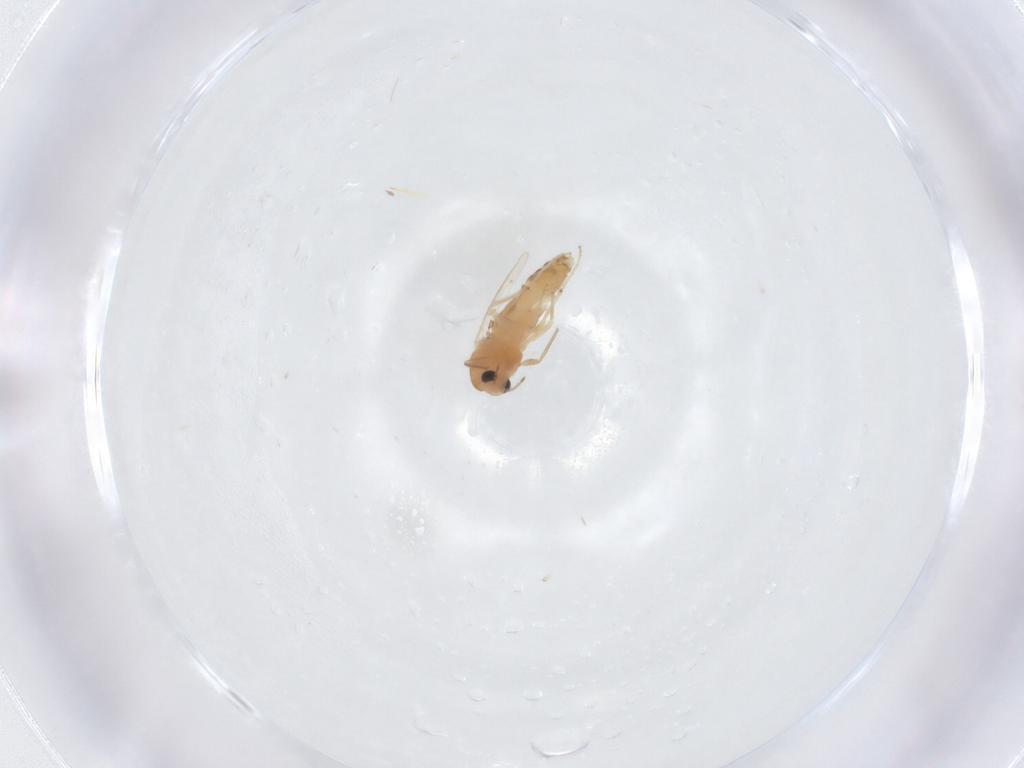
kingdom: Animalia
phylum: Arthropoda
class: Insecta
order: Diptera
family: Chironomidae
